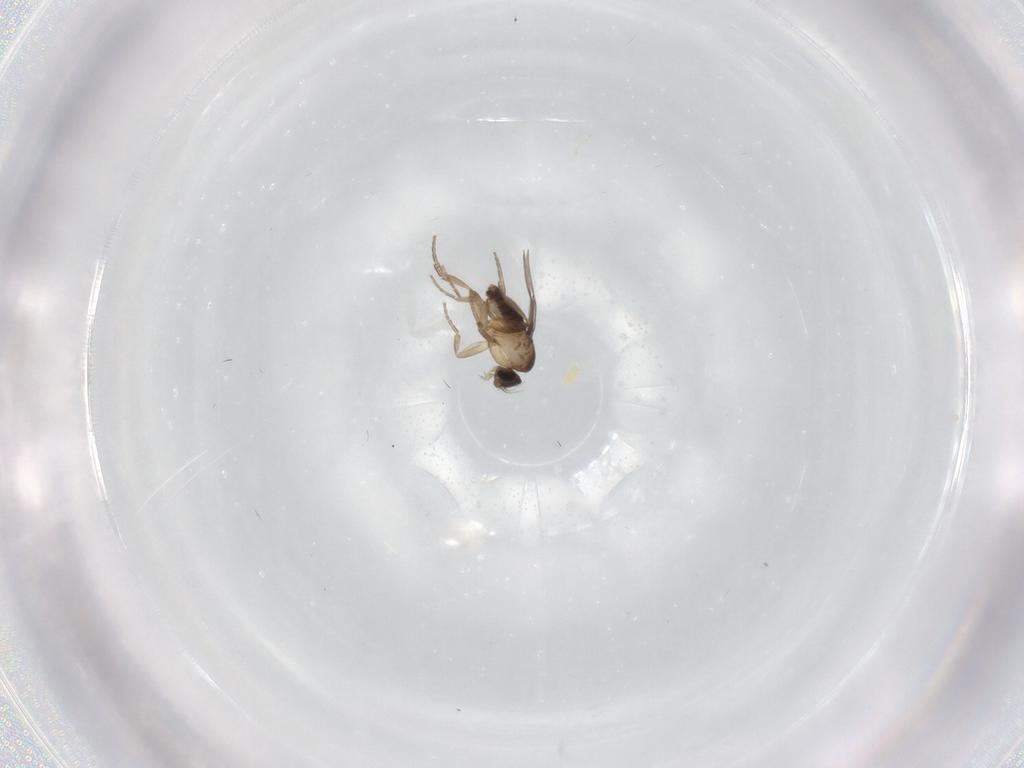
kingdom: Animalia
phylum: Arthropoda
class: Insecta
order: Diptera
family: Phoridae
